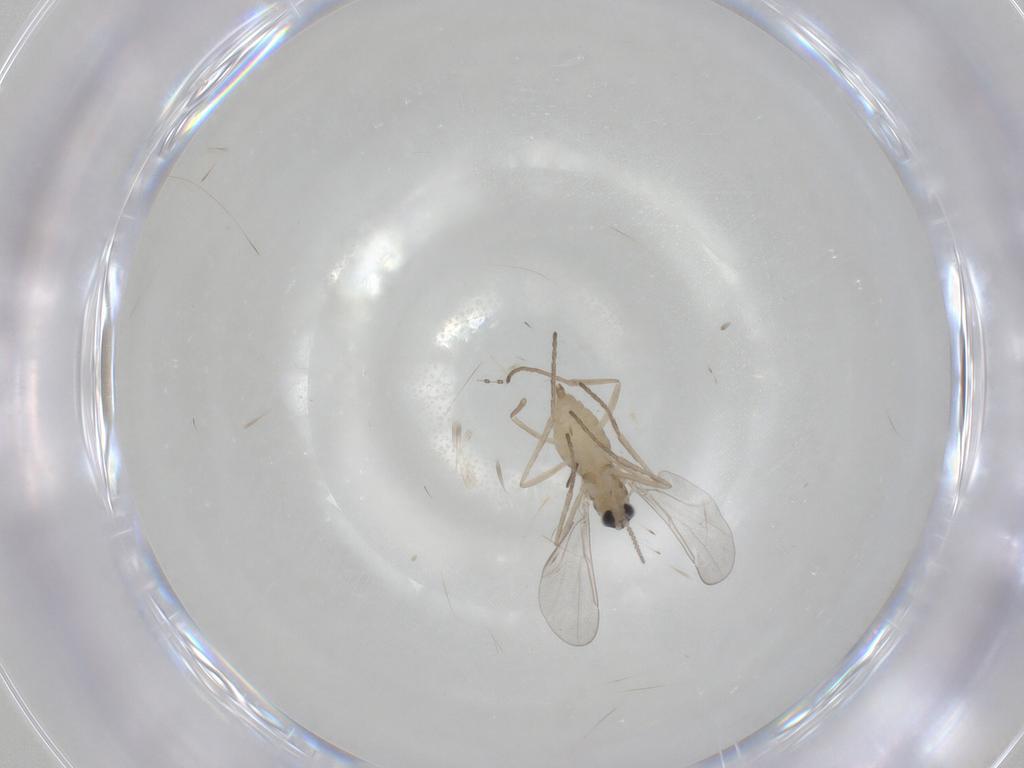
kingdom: Animalia
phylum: Arthropoda
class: Insecta
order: Diptera
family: Cecidomyiidae
